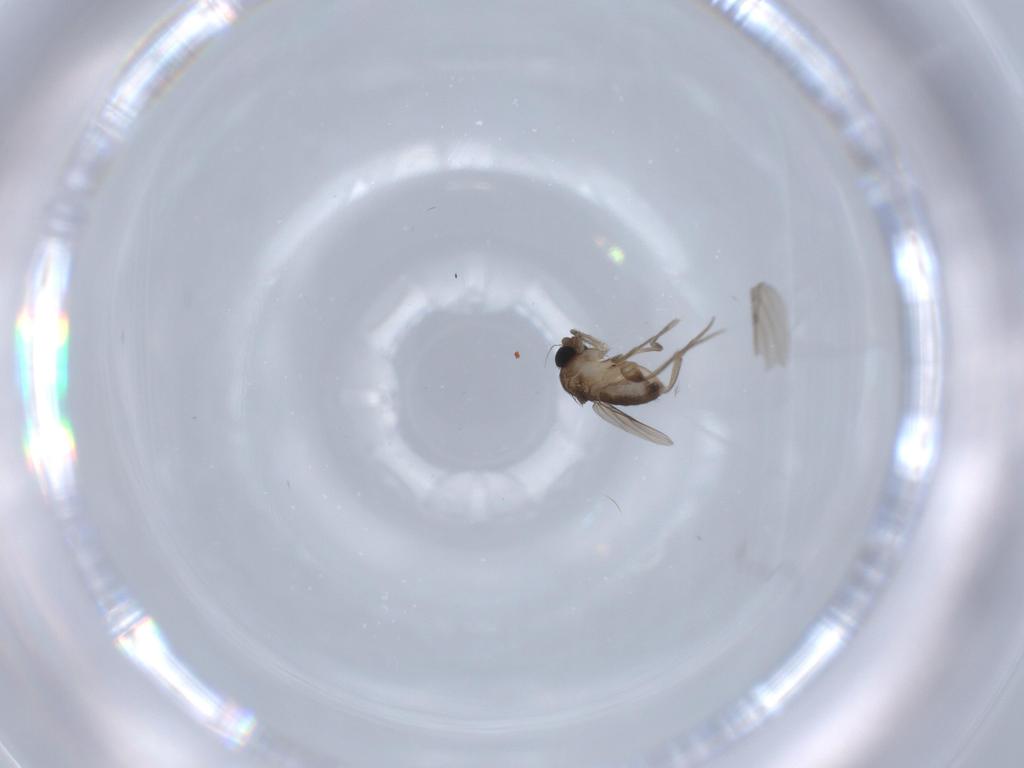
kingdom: Animalia
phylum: Arthropoda
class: Insecta
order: Diptera
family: Phoridae
